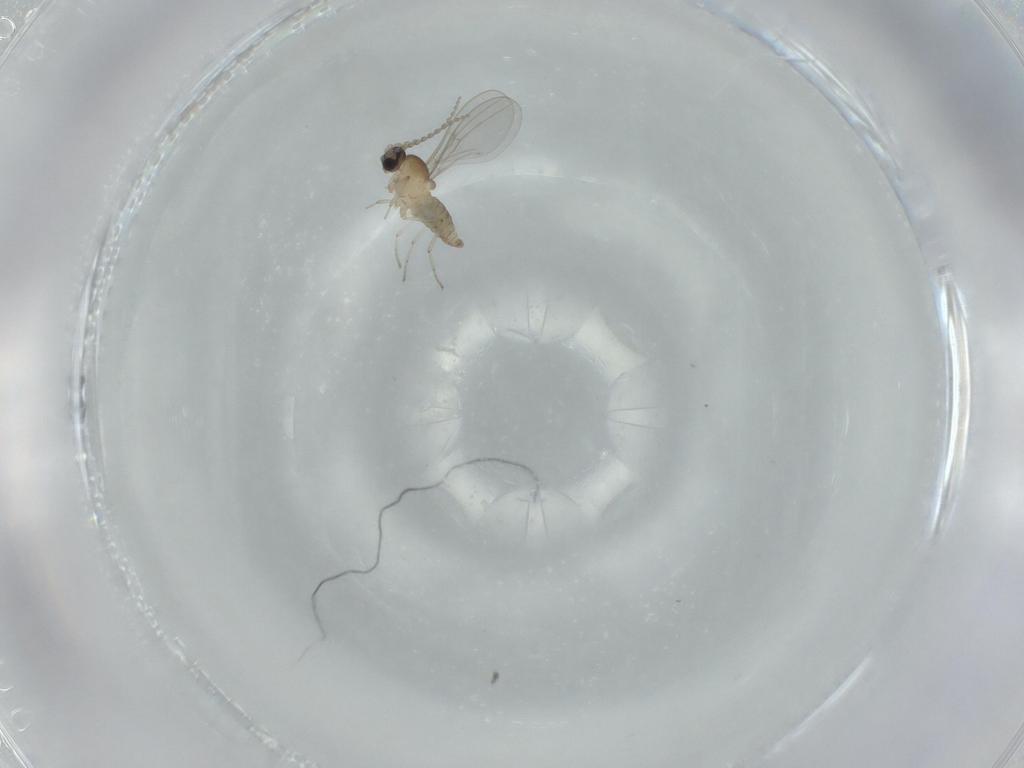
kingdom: Animalia
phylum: Arthropoda
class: Insecta
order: Diptera
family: Cecidomyiidae
